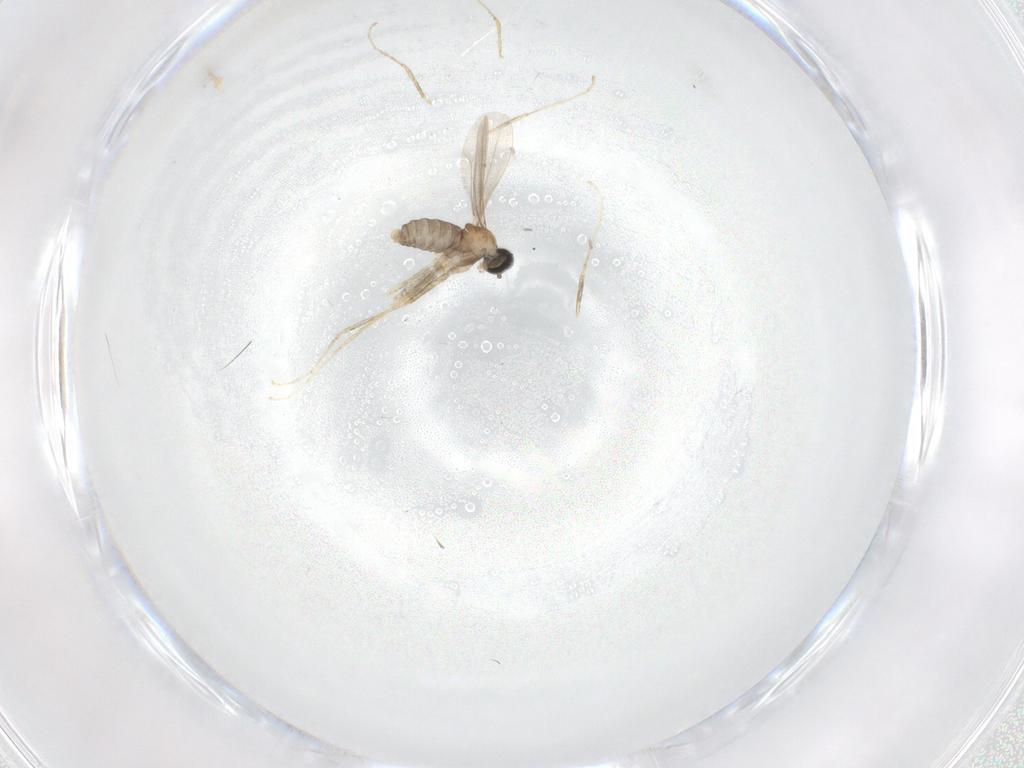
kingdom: Animalia
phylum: Arthropoda
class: Insecta
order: Diptera
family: Cecidomyiidae
